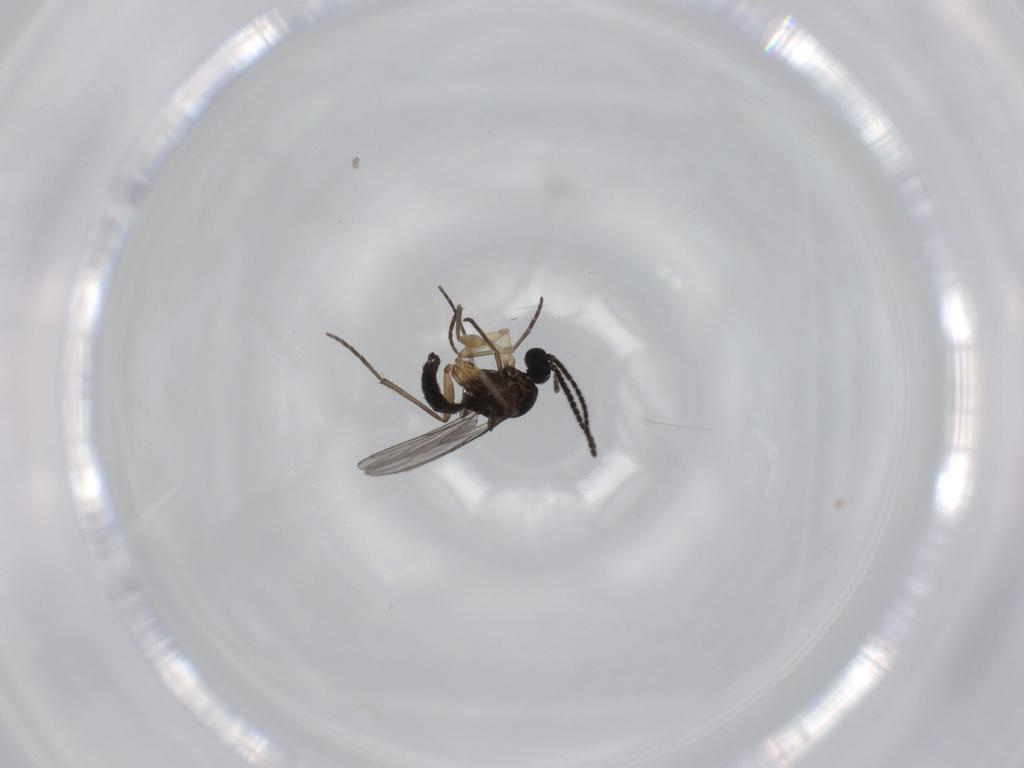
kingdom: Animalia
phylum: Arthropoda
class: Insecta
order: Diptera
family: Sciaridae
